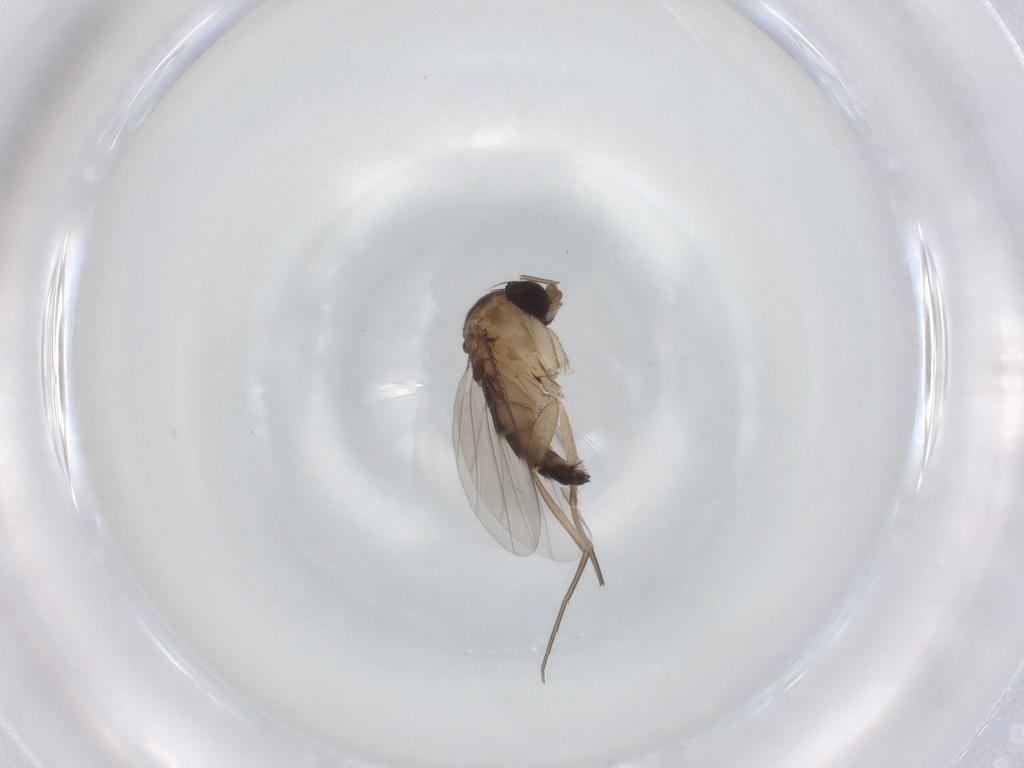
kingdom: Animalia
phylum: Arthropoda
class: Insecta
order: Diptera
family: Phoridae
